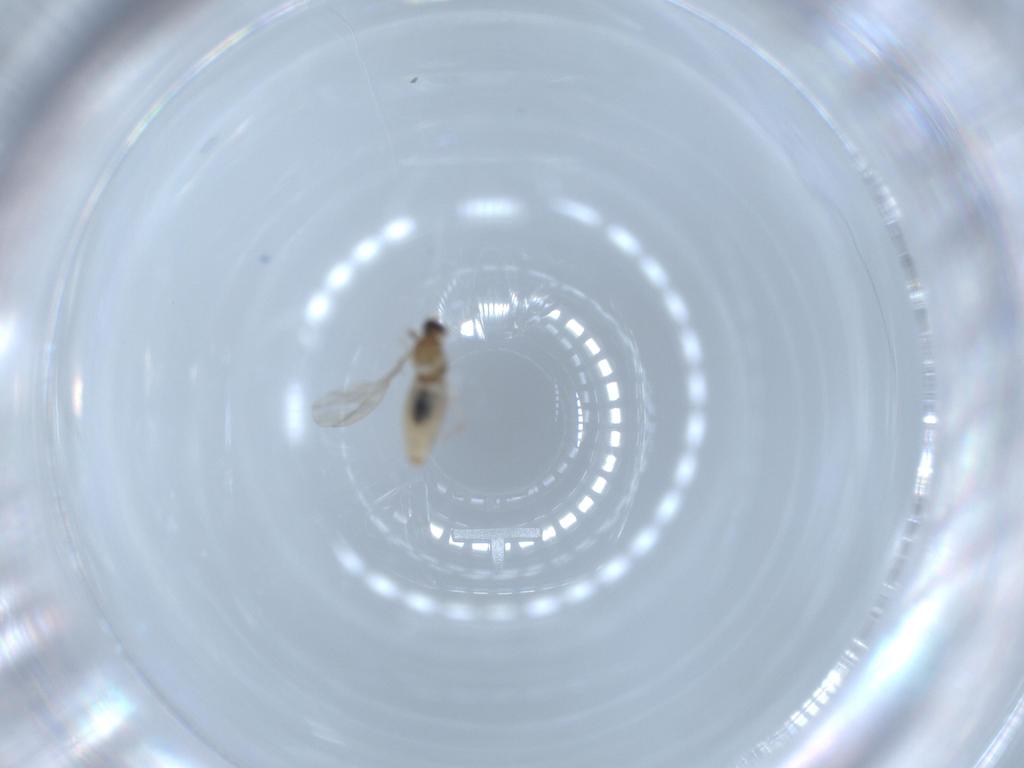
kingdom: Animalia
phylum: Arthropoda
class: Insecta
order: Diptera
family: Cecidomyiidae
